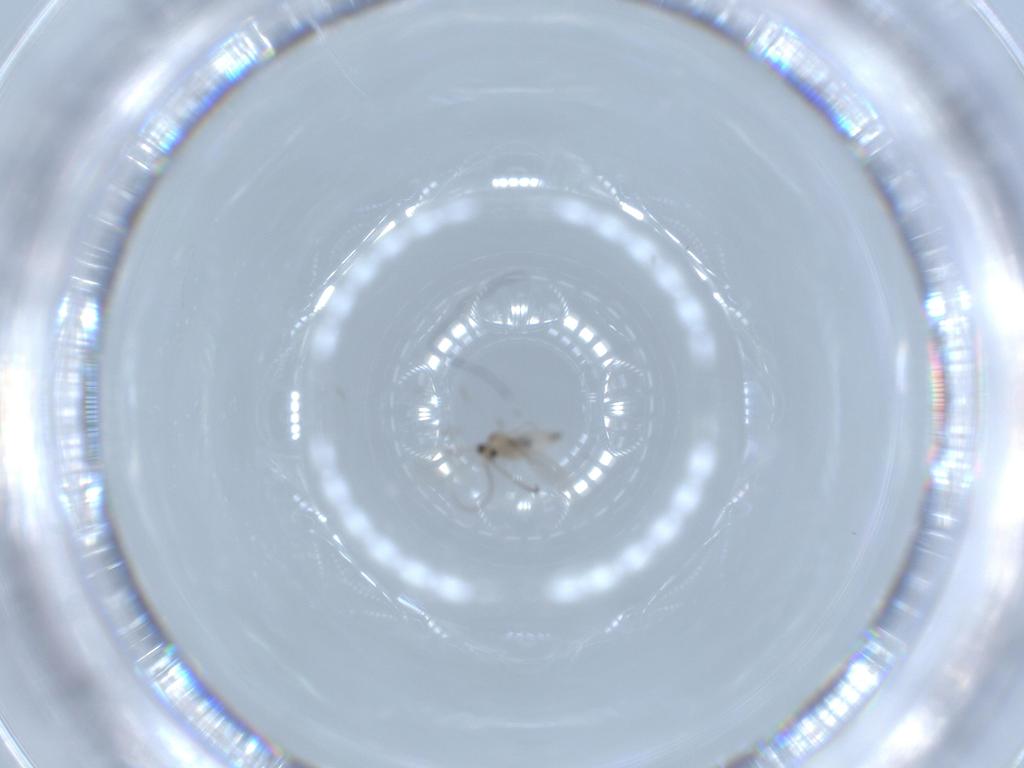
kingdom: Animalia
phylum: Arthropoda
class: Insecta
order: Diptera
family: Cecidomyiidae
